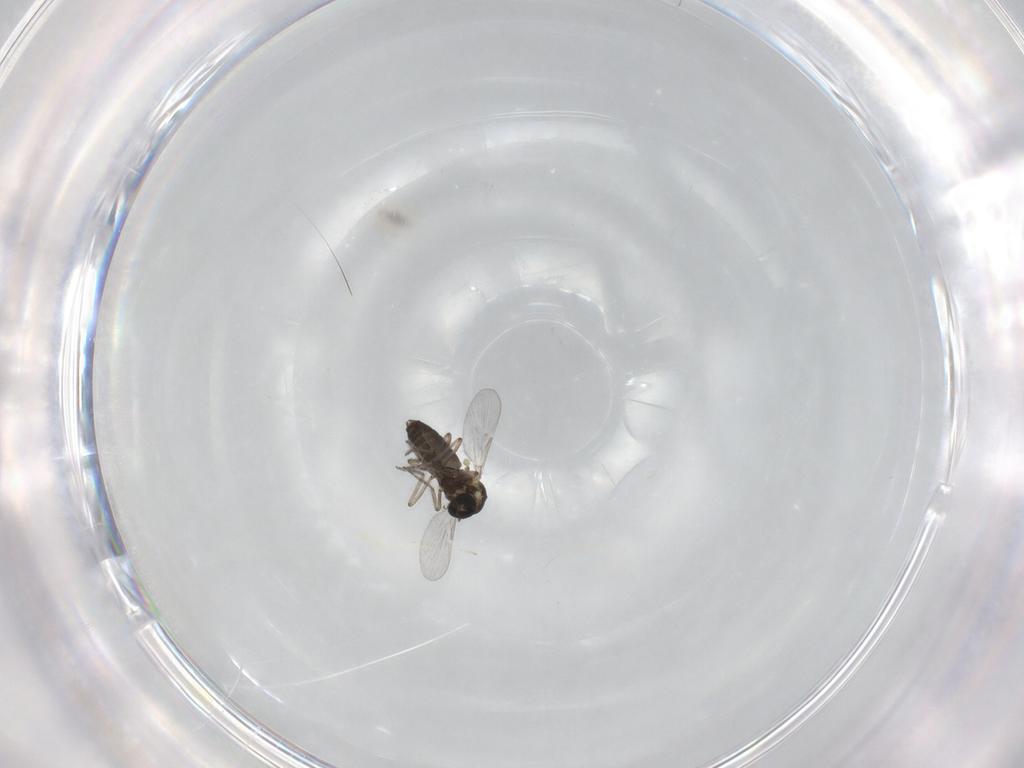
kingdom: Animalia
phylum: Arthropoda
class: Insecta
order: Diptera
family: Ceratopogonidae
